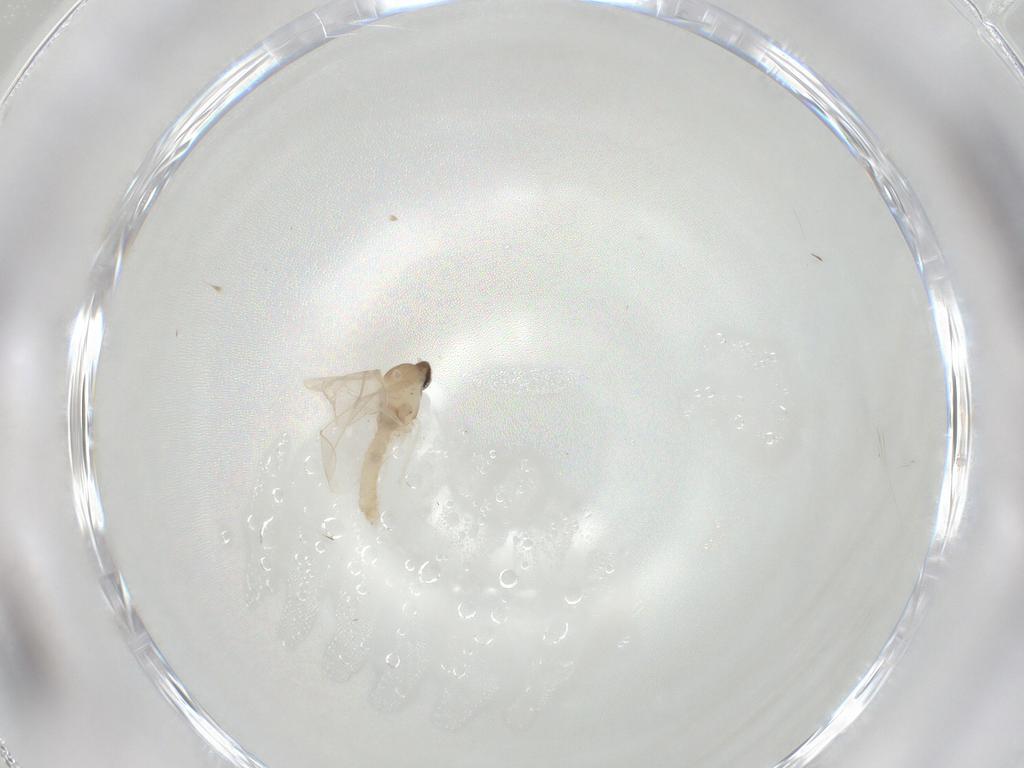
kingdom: Animalia
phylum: Arthropoda
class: Insecta
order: Diptera
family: Cecidomyiidae
